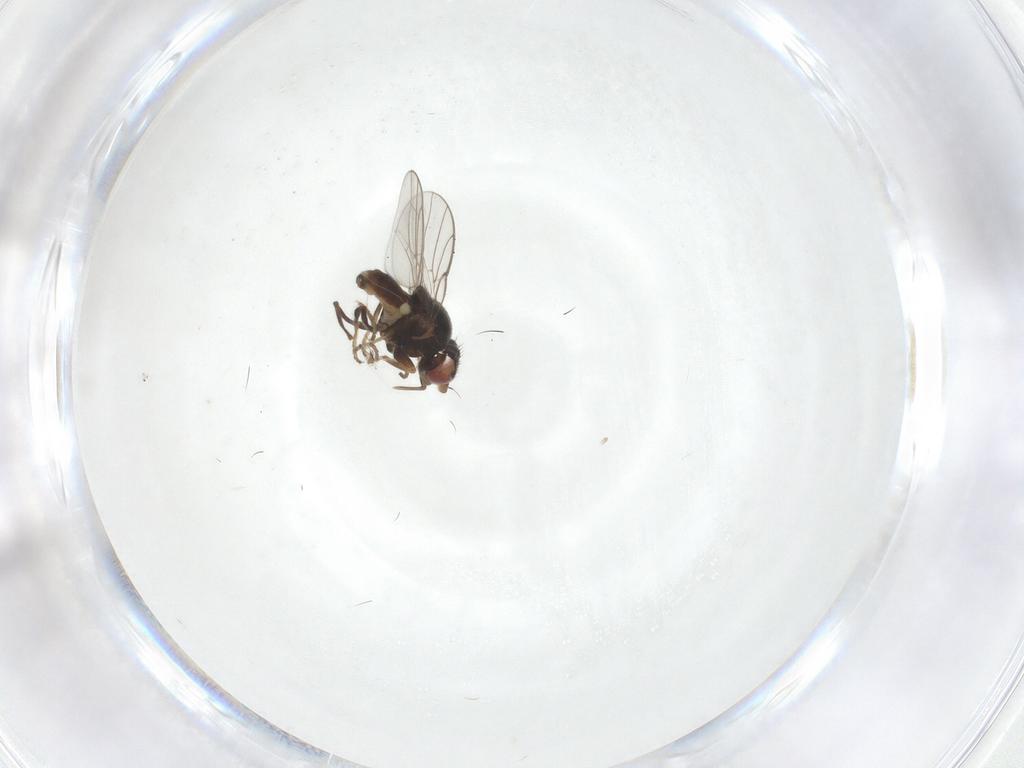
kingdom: Animalia
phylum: Arthropoda
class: Insecta
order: Diptera
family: Chloropidae
